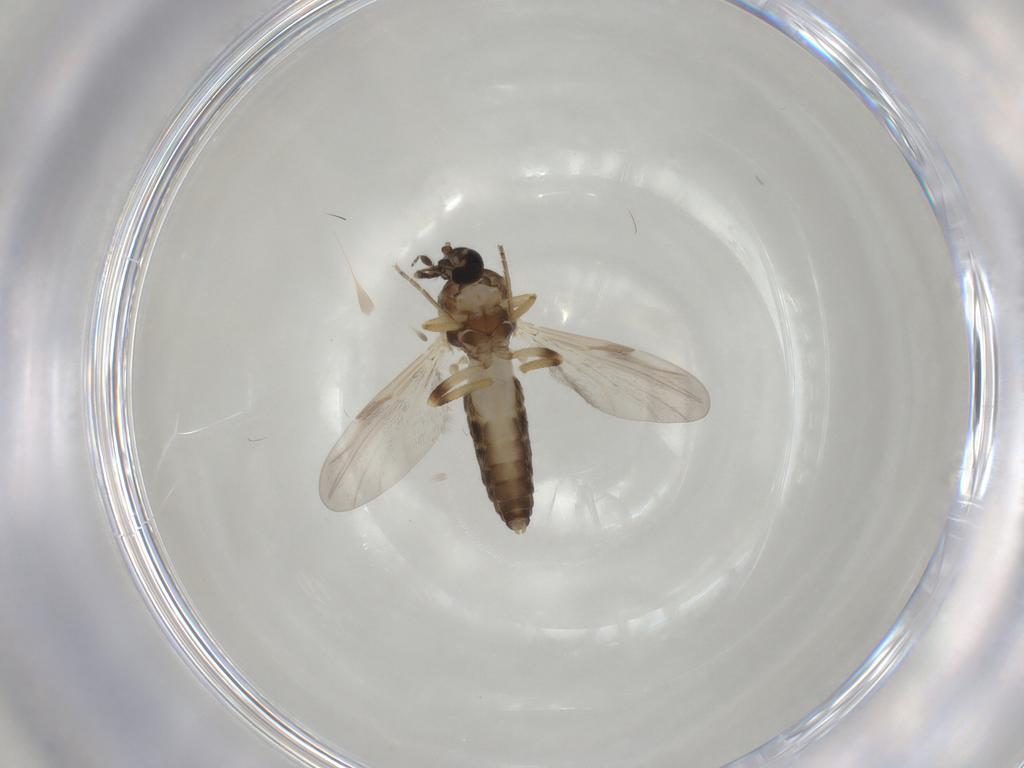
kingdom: Animalia
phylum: Arthropoda
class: Insecta
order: Diptera
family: Ceratopogonidae
